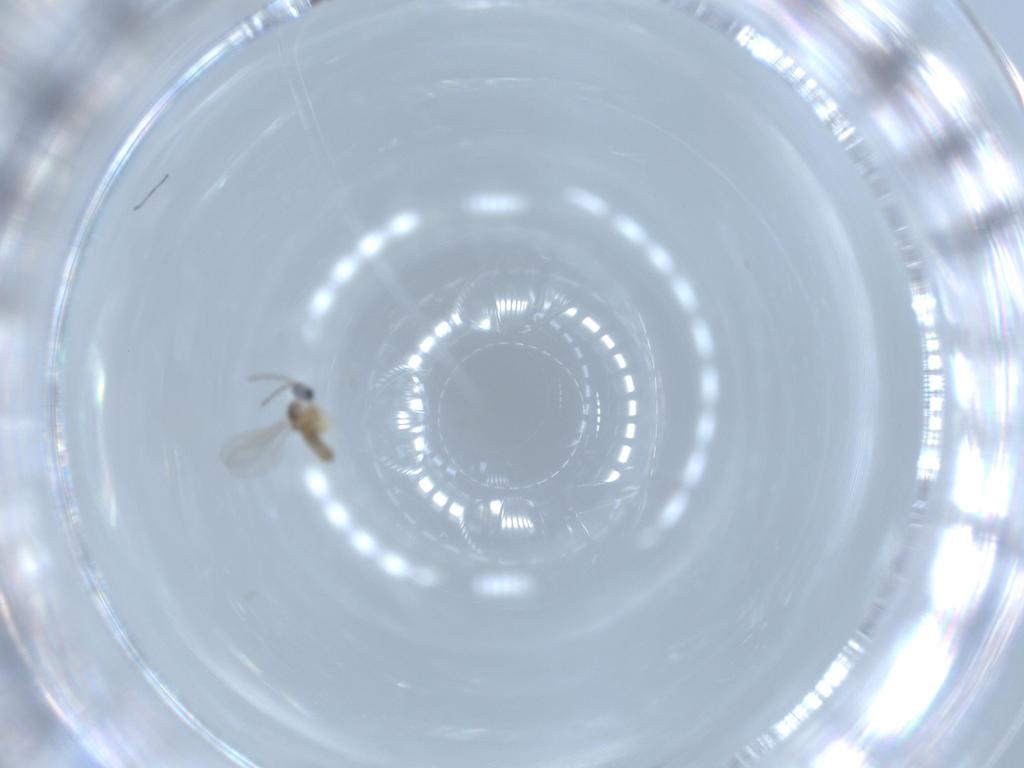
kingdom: Animalia
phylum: Arthropoda
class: Insecta
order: Diptera
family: Cecidomyiidae
